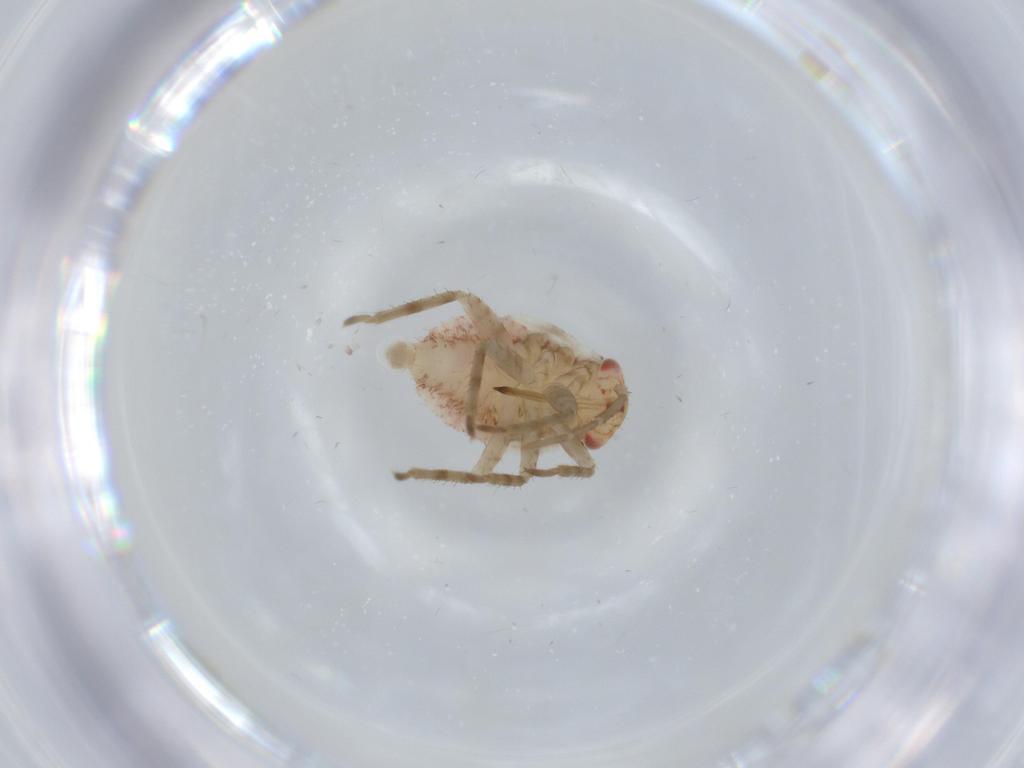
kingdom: Animalia
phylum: Arthropoda
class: Insecta
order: Hemiptera
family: Miridae
